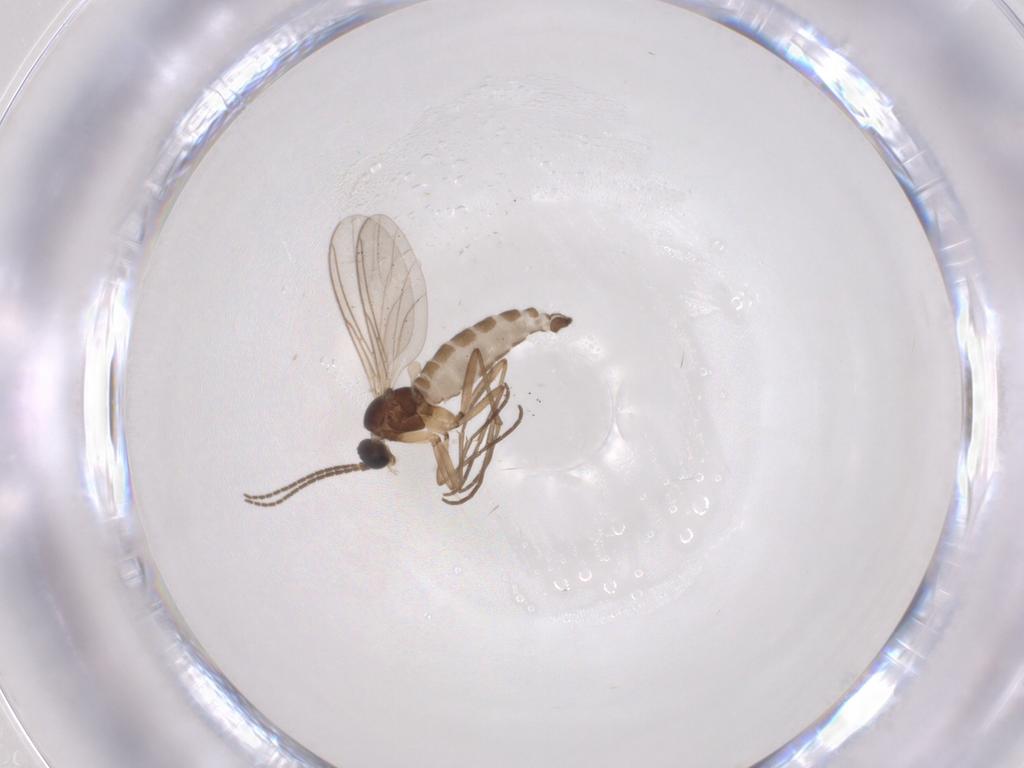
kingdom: Animalia
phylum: Arthropoda
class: Insecta
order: Diptera
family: Sciaridae
